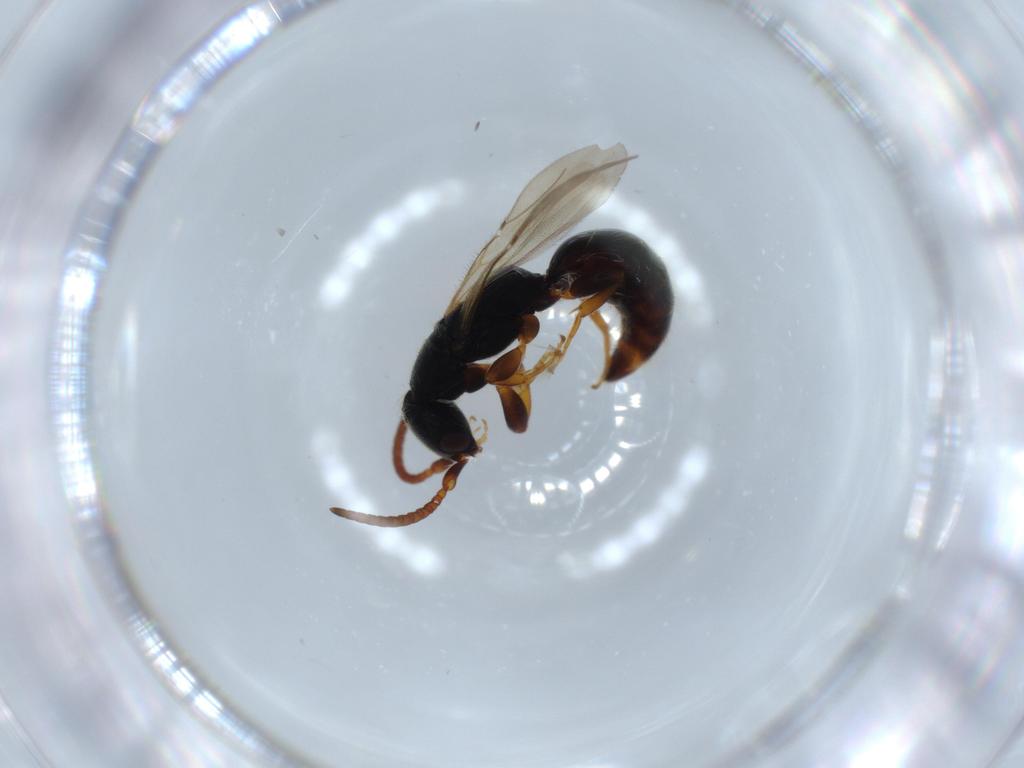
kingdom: Animalia
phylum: Arthropoda
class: Insecta
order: Hymenoptera
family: Bethylidae
